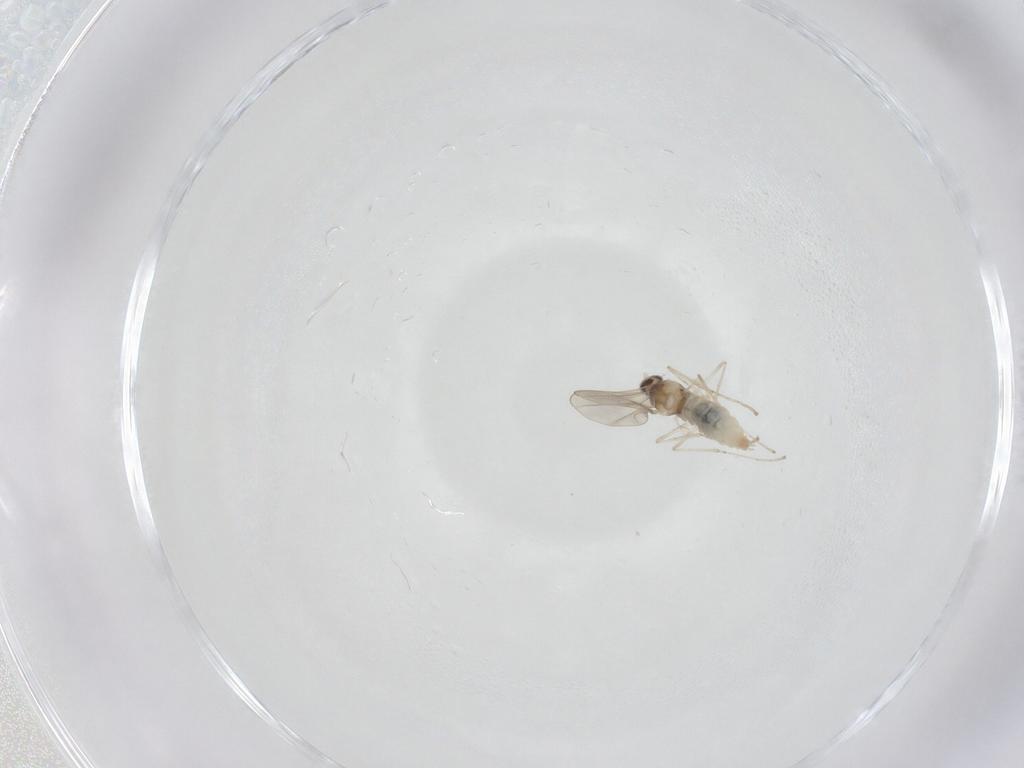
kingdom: Animalia
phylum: Arthropoda
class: Insecta
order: Diptera
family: Cecidomyiidae
